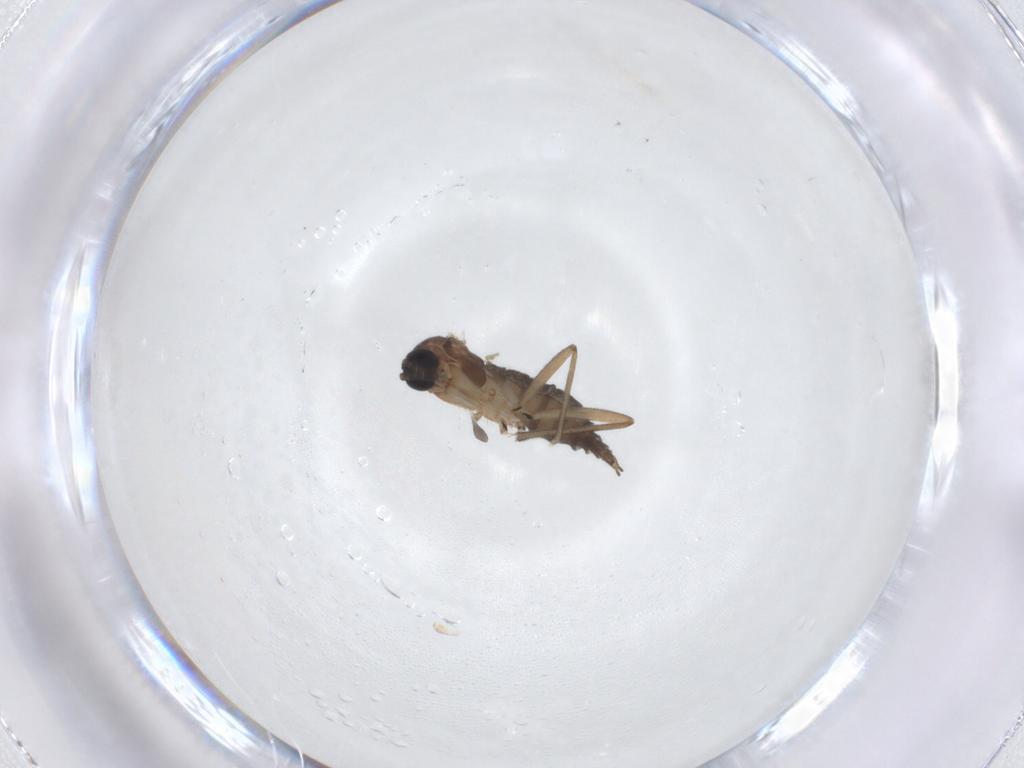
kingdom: Animalia
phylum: Arthropoda
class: Insecta
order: Diptera
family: Sciaridae
